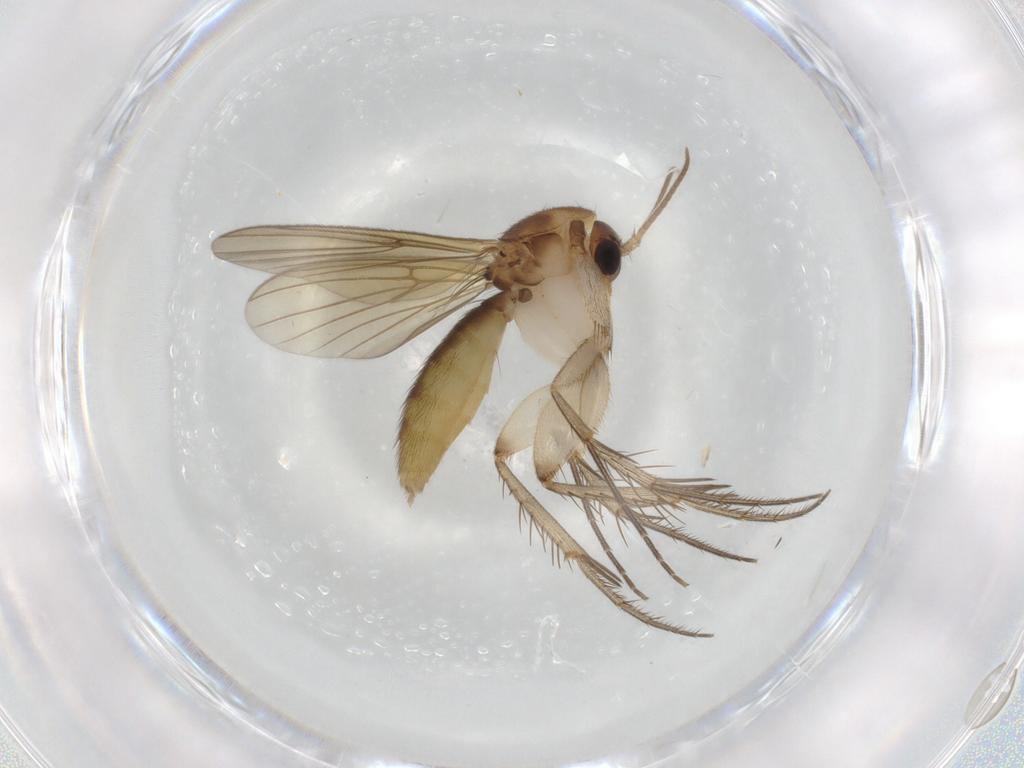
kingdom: Animalia
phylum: Arthropoda
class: Insecta
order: Diptera
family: Mycetophilidae
